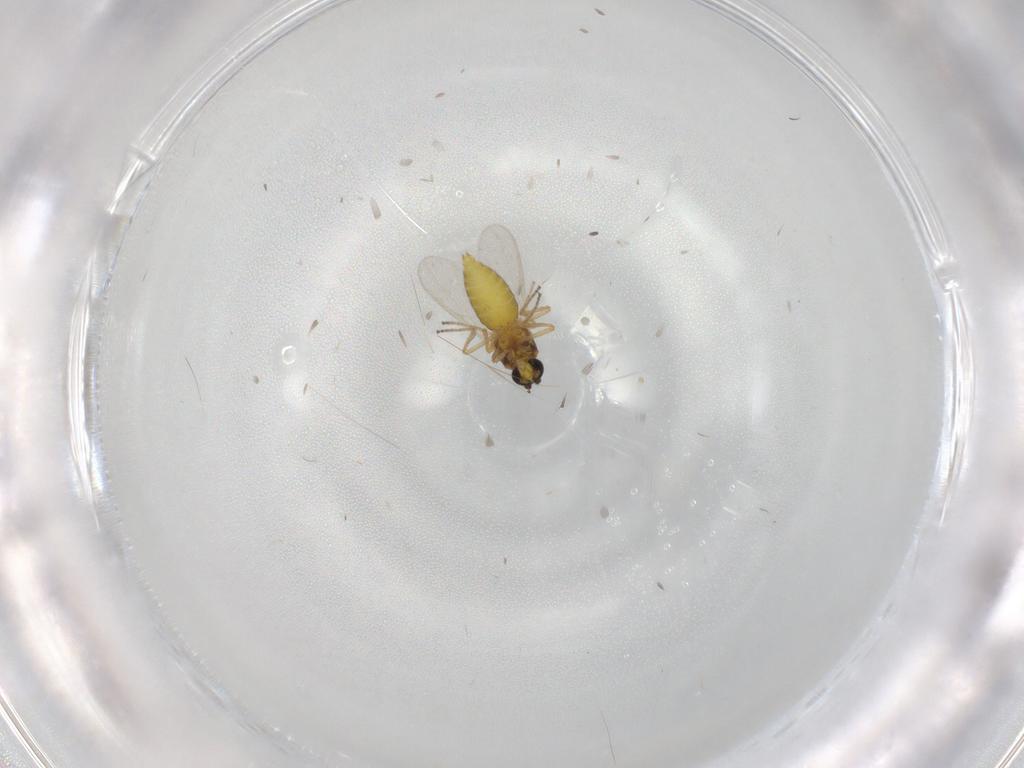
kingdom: Animalia
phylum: Arthropoda
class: Insecta
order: Diptera
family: Ceratopogonidae
